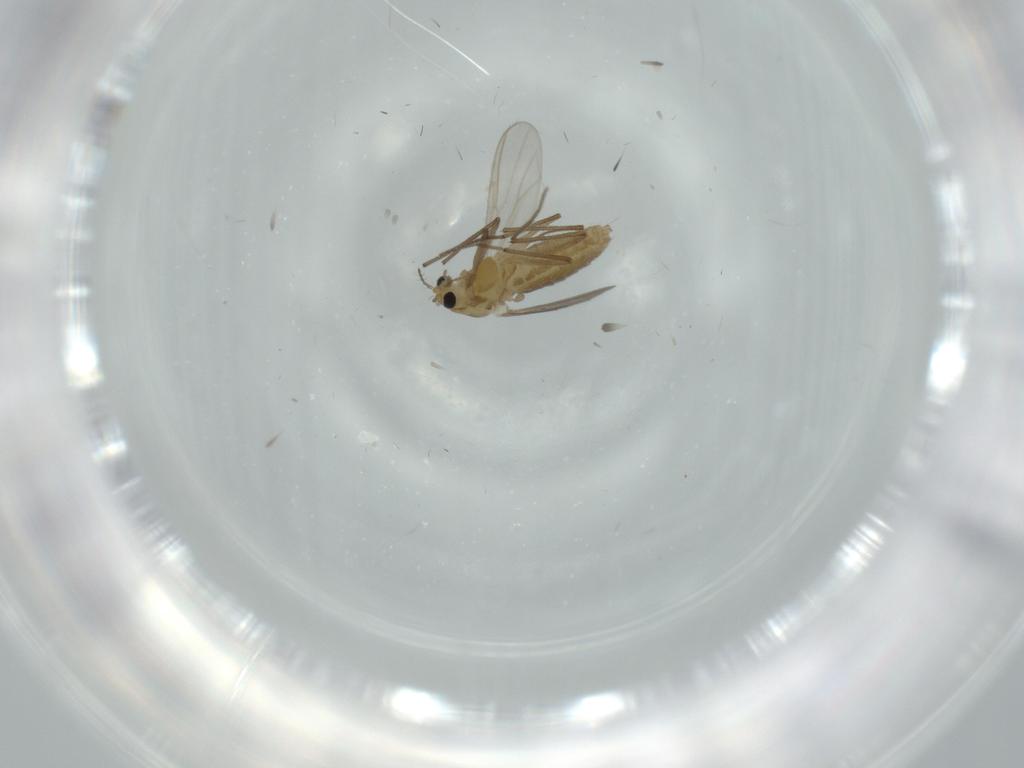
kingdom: Animalia
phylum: Arthropoda
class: Insecta
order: Diptera
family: Chironomidae
